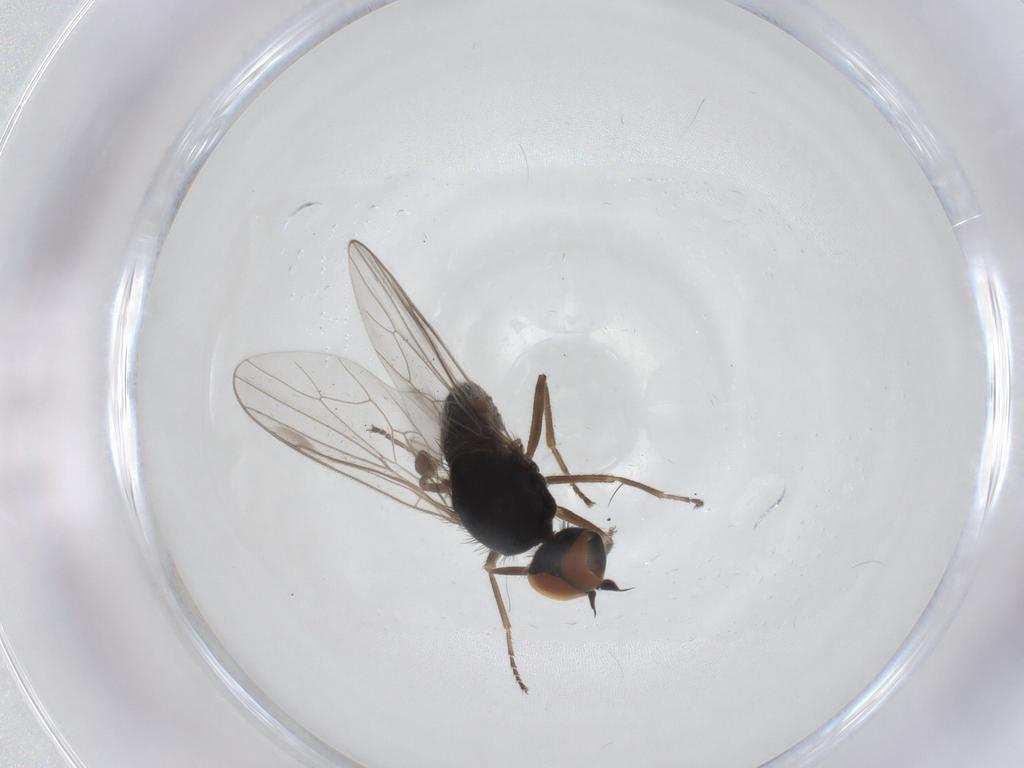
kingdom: Animalia
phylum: Arthropoda
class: Insecta
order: Diptera
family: Hybotidae
